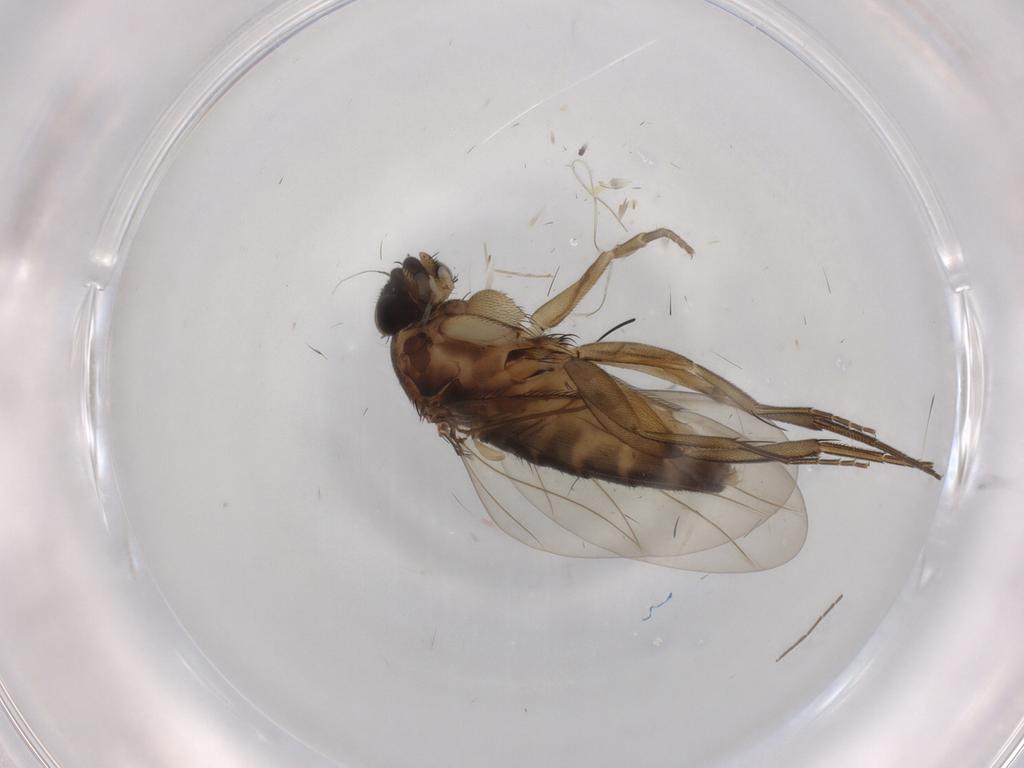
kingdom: Animalia
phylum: Arthropoda
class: Insecta
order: Diptera
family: Phoridae
